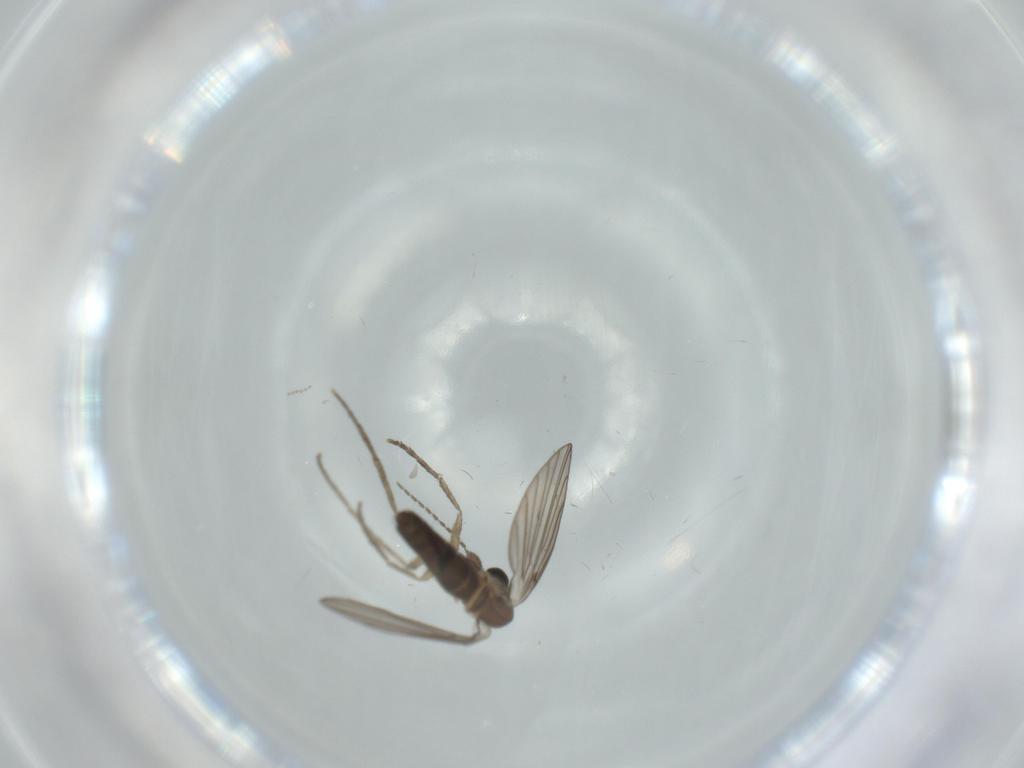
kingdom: Animalia
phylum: Arthropoda
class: Insecta
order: Diptera
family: Psychodidae
